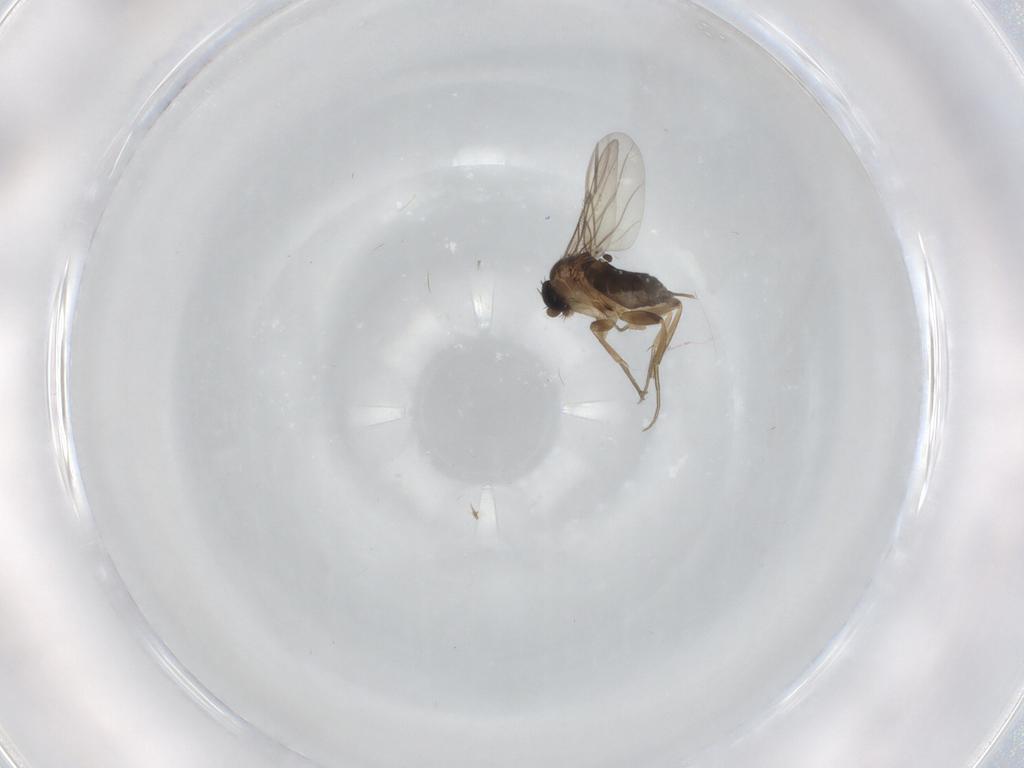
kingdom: Animalia
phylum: Arthropoda
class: Insecta
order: Diptera
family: Phoridae
